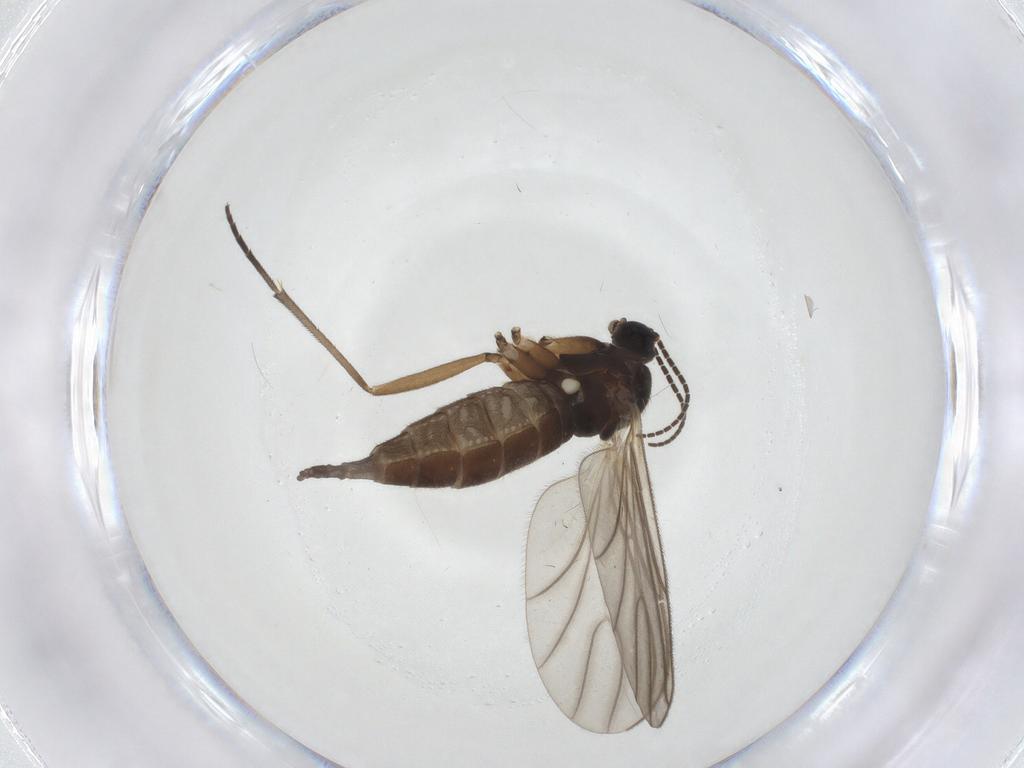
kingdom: Animalia
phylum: Arthropoda
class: Insecta
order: Diptera
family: Sciaridae
